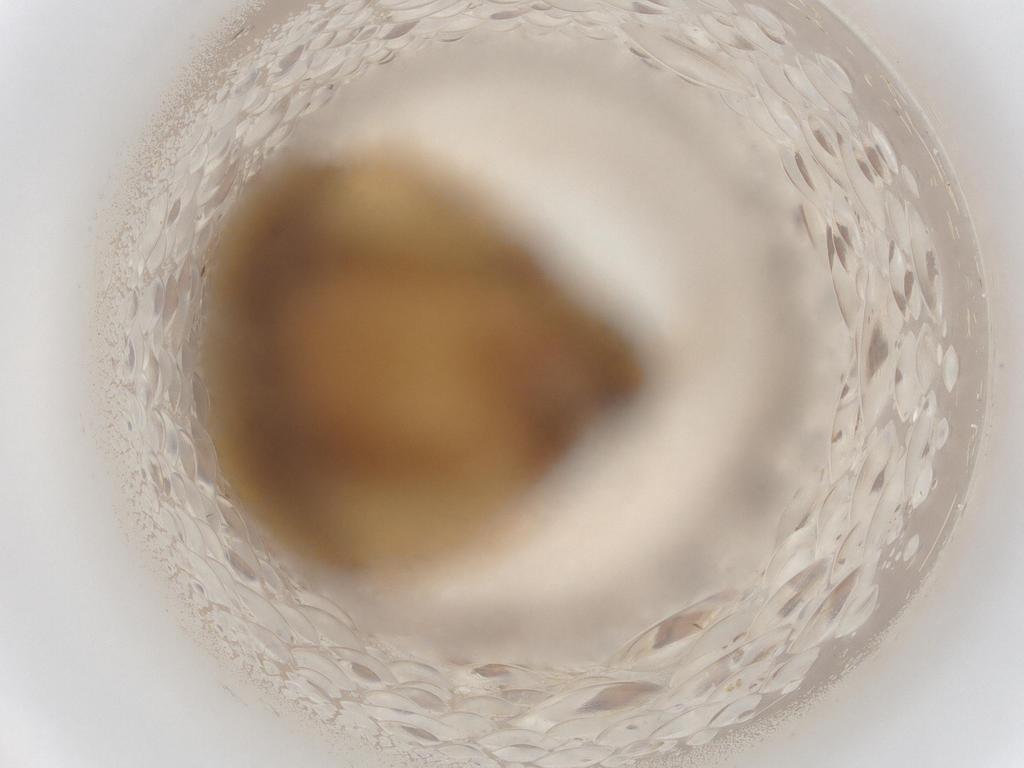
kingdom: Animalia
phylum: Arthropoda
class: Insecta
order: Lepidoptera
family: Depressariidae
